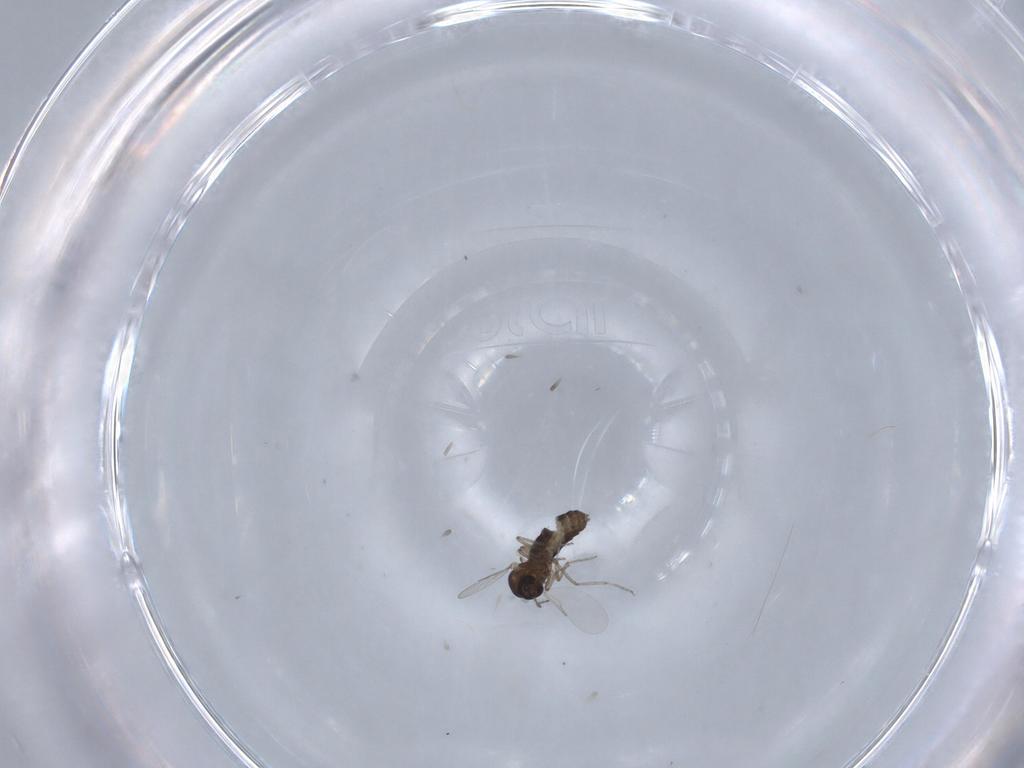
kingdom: Animalia
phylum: Arthropoda
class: Insecta
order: Diptera
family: Ceratopogonidae
